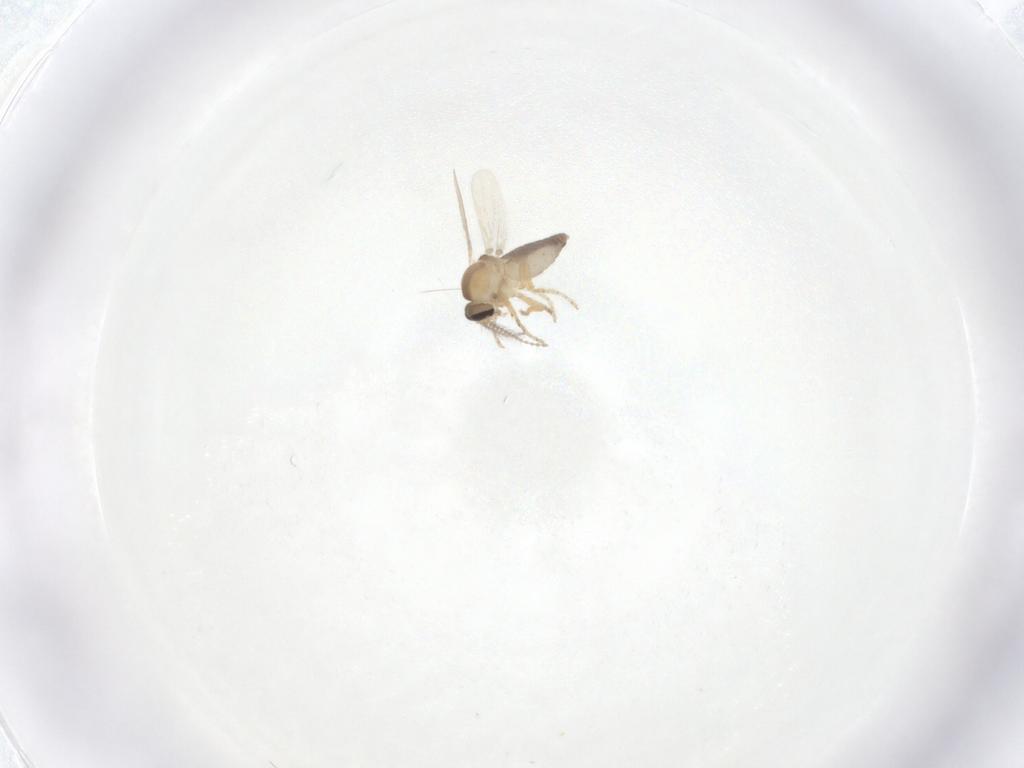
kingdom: Animalia
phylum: Arthropoda
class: Insecta
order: Diptera
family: Ceratopogonidae
